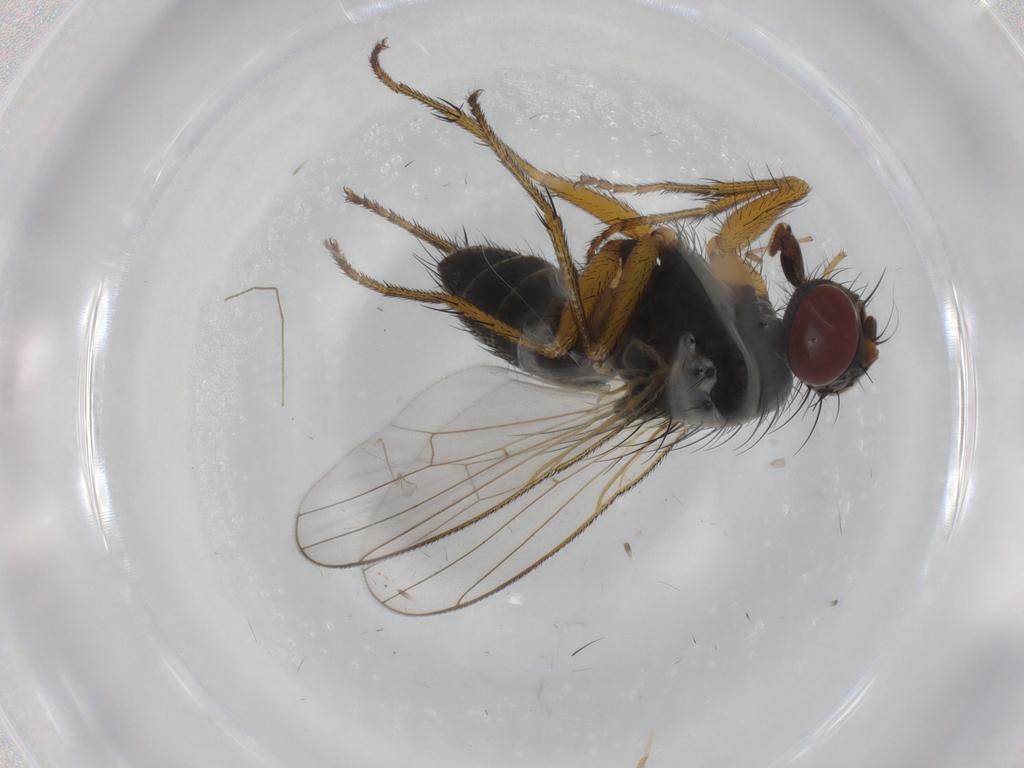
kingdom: Animalia
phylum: Arthropoda
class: Insecta
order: Diptera
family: Muscidae
